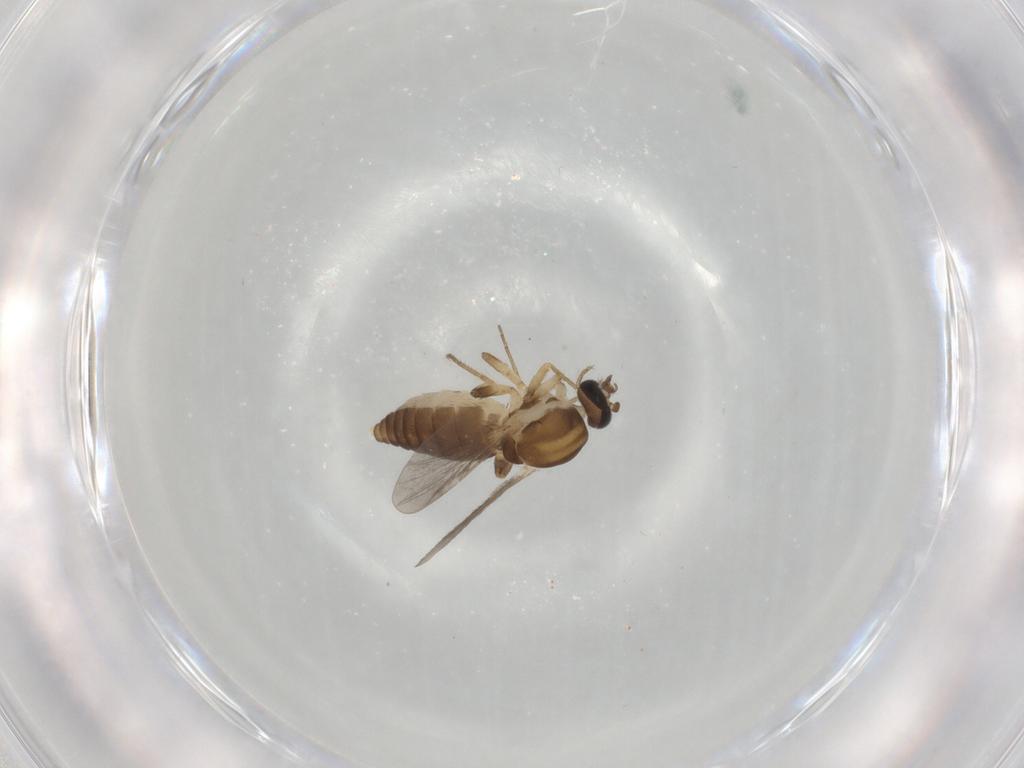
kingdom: Animalia
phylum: Arthropoda
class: Insecta
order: Diptera
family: Ceratopogonidae
